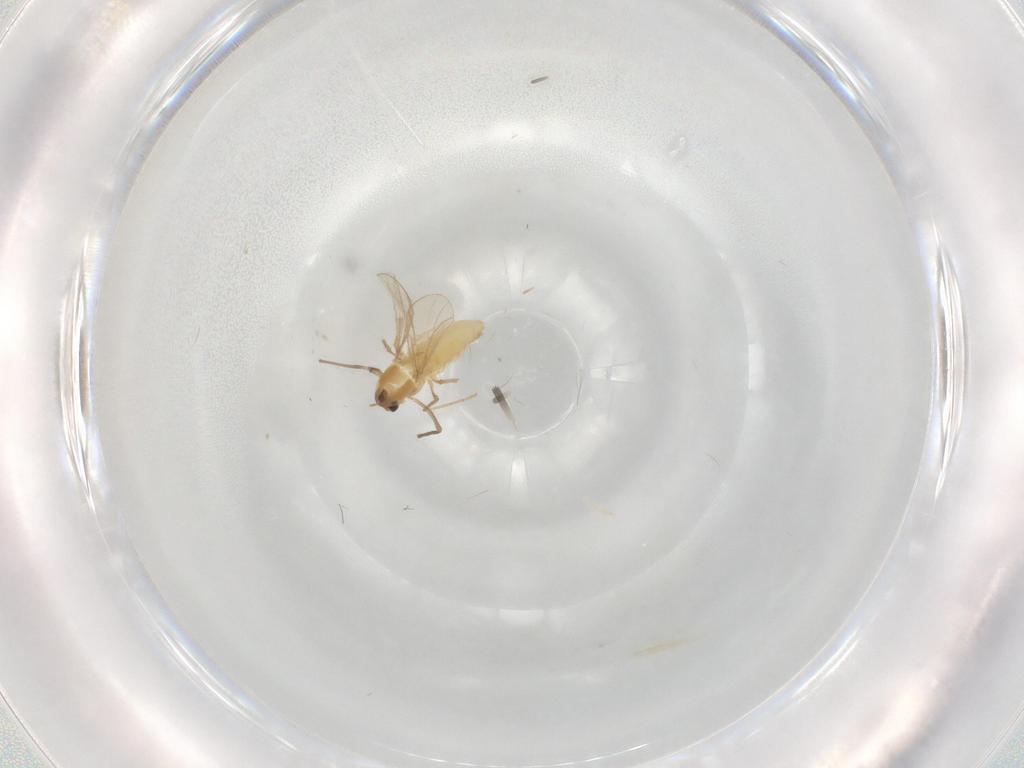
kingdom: Animalia
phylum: Arthropoda
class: Insecta
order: Diptera
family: Chironomidae
